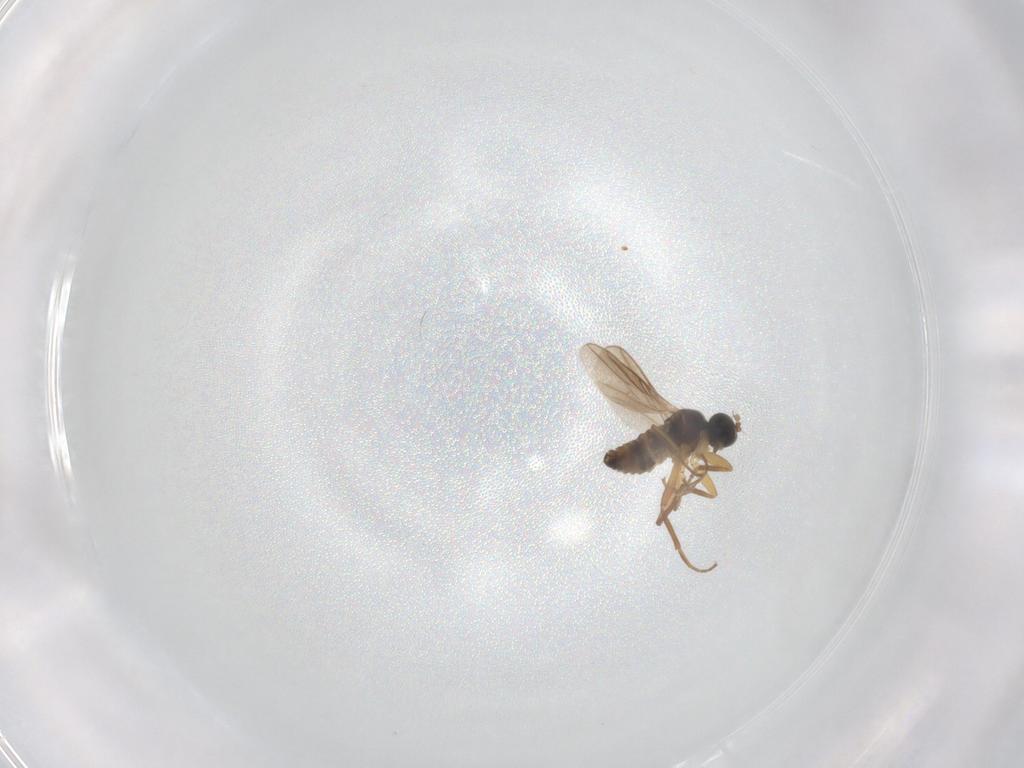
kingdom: Animalia
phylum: Arthropoda
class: Insecta
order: Diptera
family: Hybotidae
